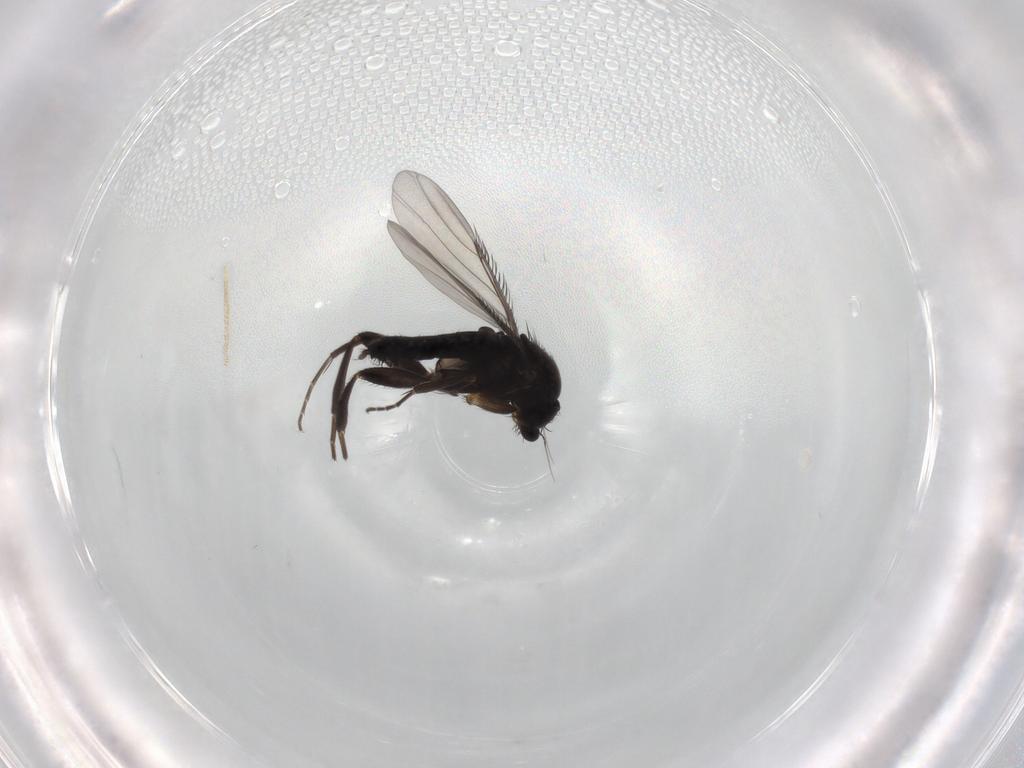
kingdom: Animalia
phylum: Arthropoda
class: Insecta
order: Diptera
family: Phoridae
